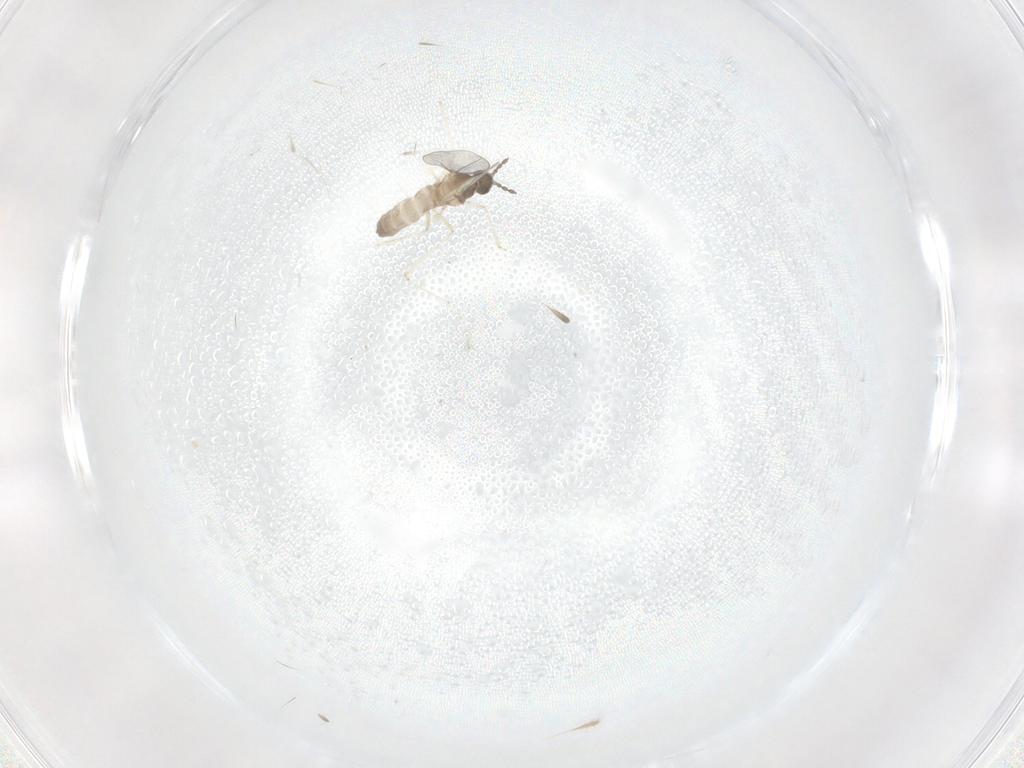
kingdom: Animalia
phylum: Arthropoda
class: Insecta
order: Diptera
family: Cecidomyiidae
